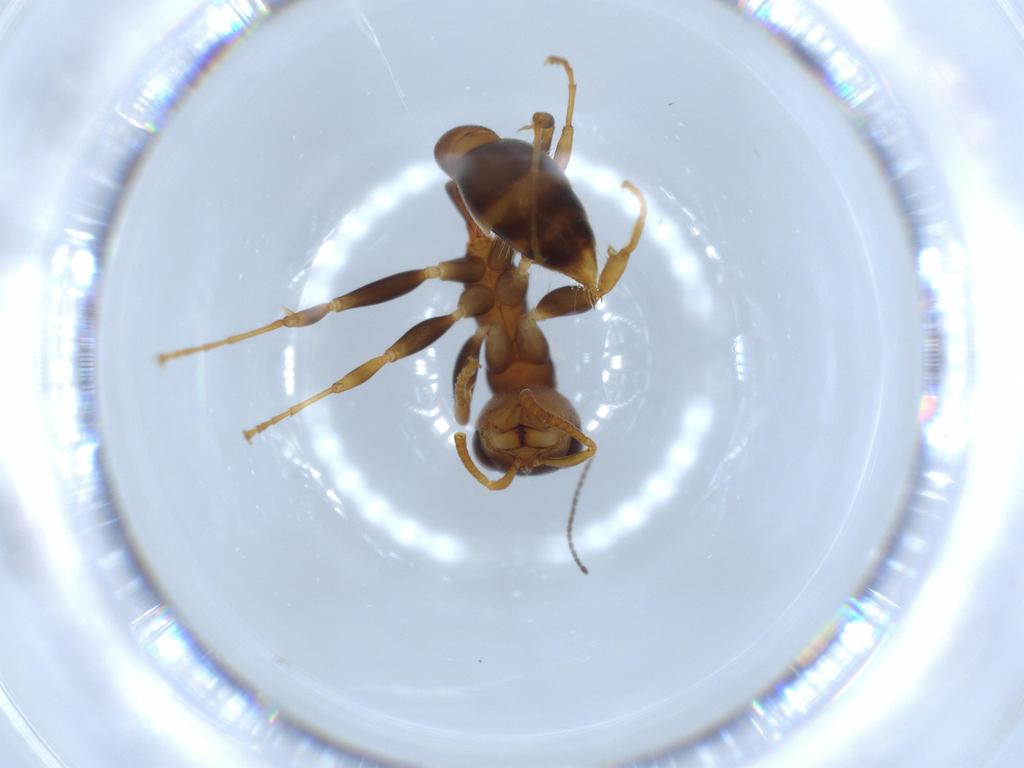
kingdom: Animalia
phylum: Arthropoda
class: Insecta
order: Hymenoptera
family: Formicidae
